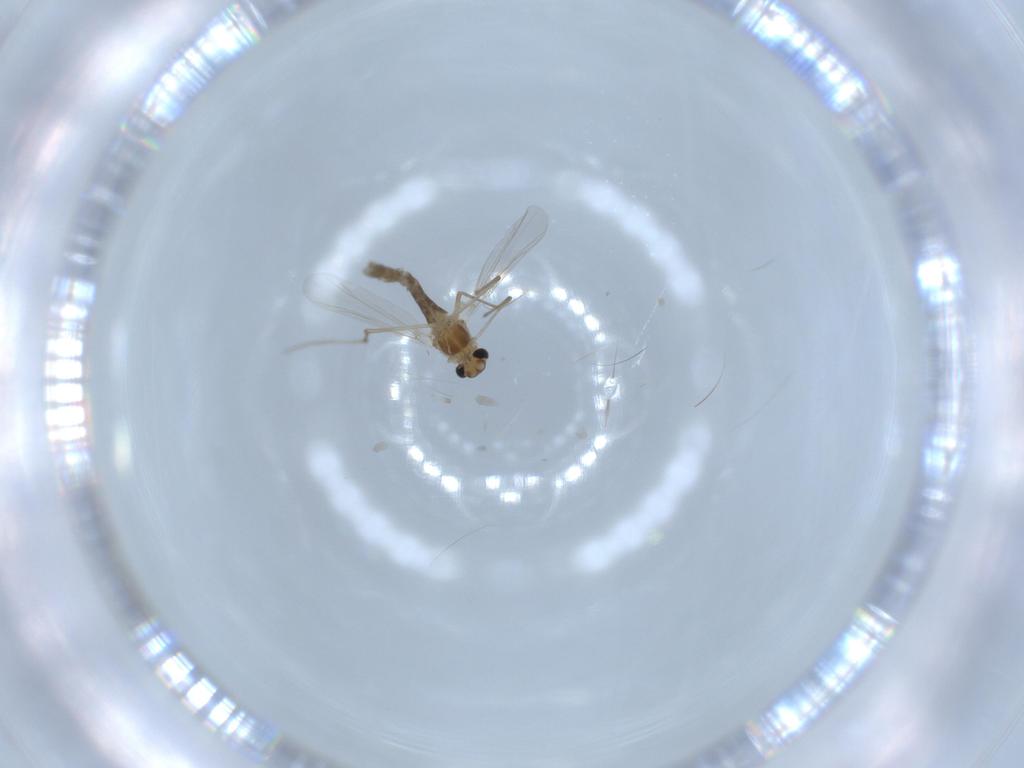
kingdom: Animalia
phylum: Arthropoda
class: Insecta
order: Diptera
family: Chironomidae
